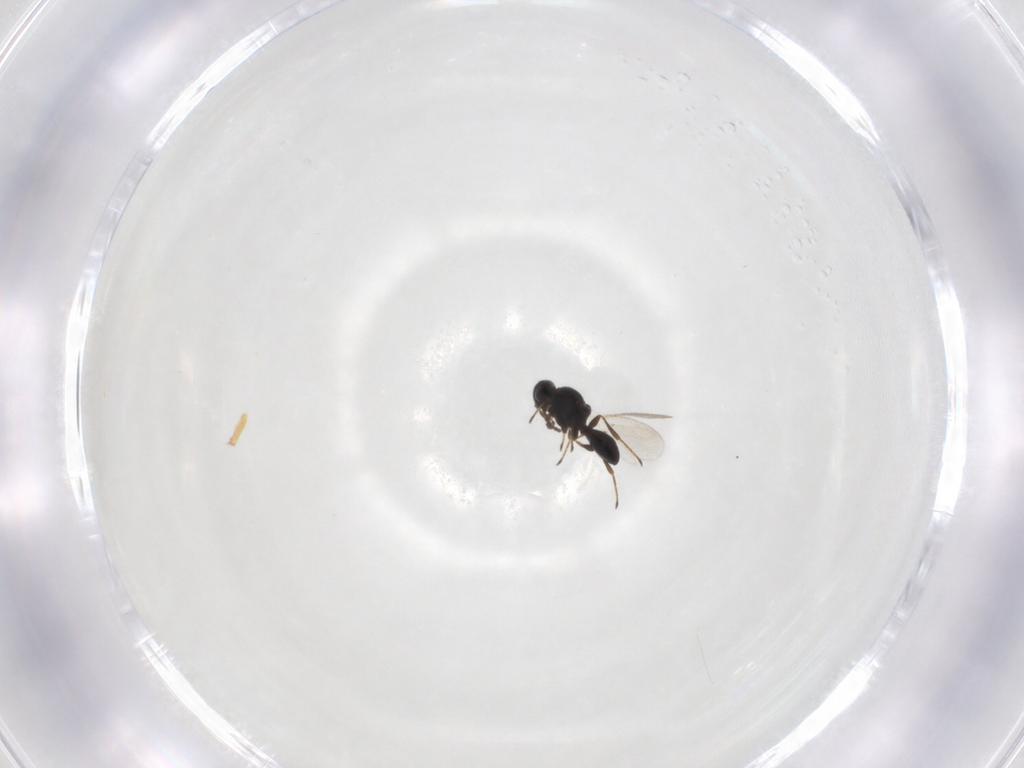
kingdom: Animalia
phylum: Arthropoda
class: Insecta
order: Hymenoptera
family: Platygastridae
